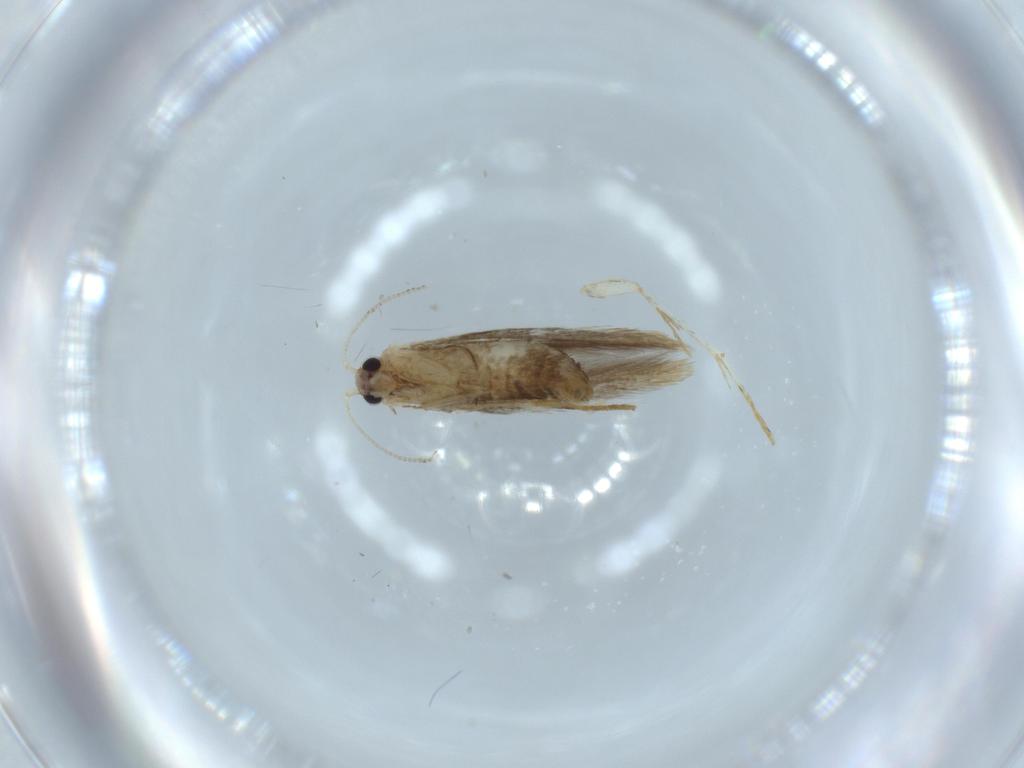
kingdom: Animalia
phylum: Arthropoda
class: Insecta
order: Lepidoptera
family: Tineidae
